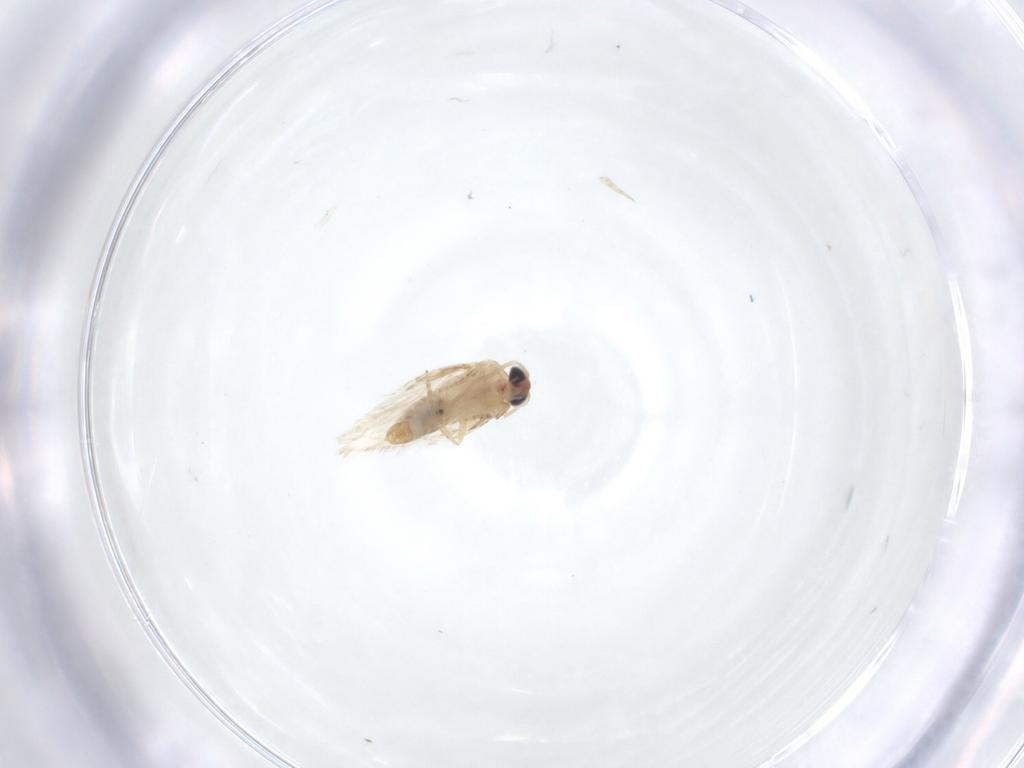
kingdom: Animalia
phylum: Arthropoda
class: Insecta
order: Lepidoptera
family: Nepticulidae
